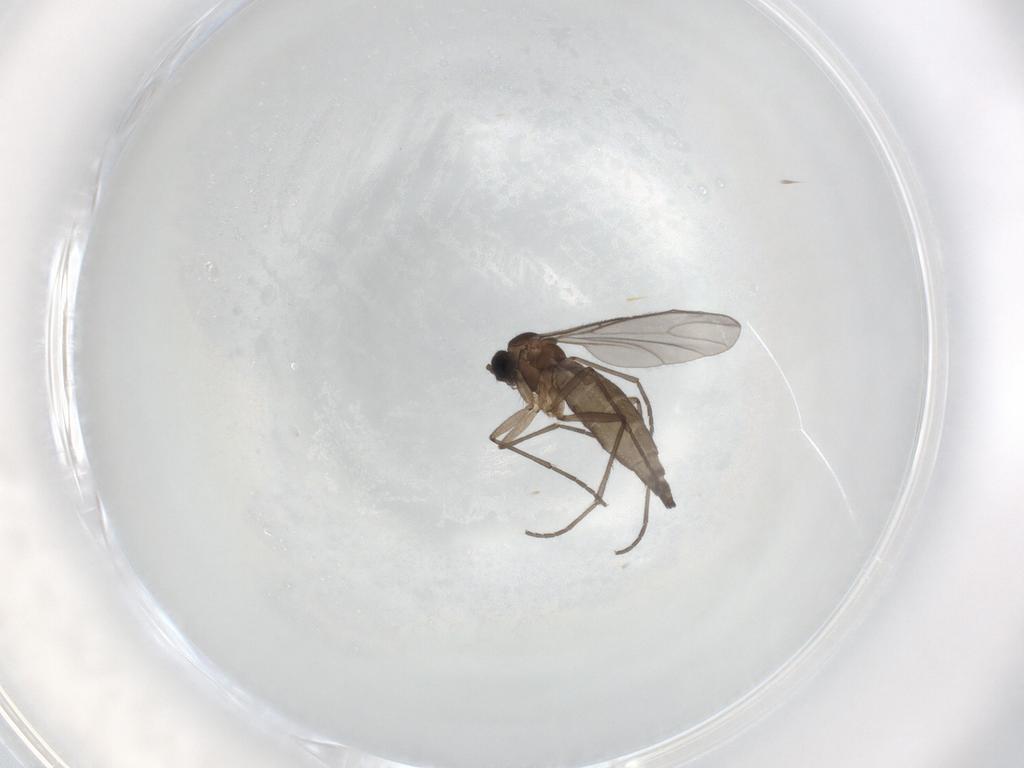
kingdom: Animalia
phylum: Arthropoda
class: Insecta
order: Diptera
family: Sciaridae
